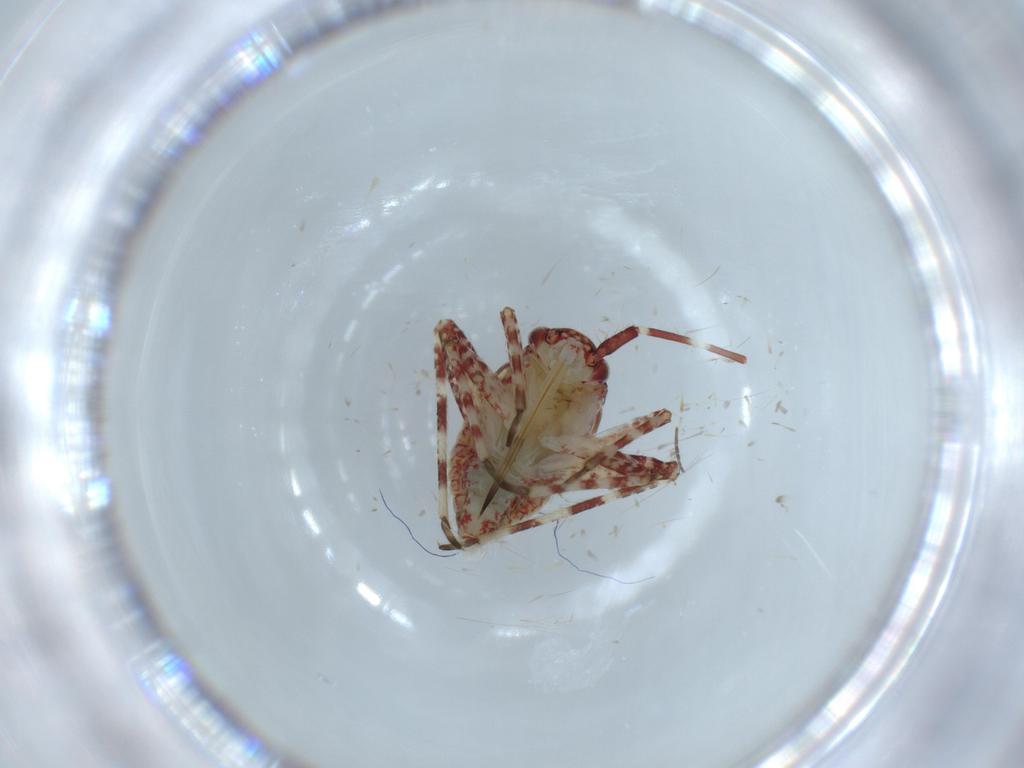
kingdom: Animalia
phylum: Arthropoda
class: Insecta
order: Hemiptera
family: Miridae
